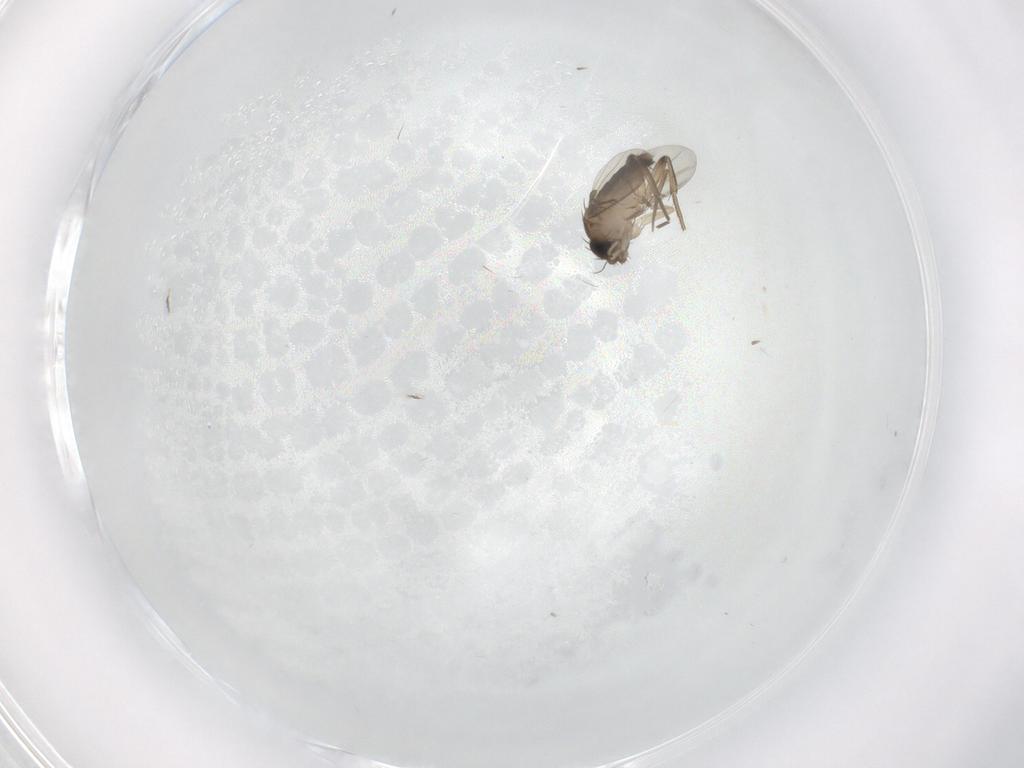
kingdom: Animalia
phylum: Arthropoda
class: Insecta
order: Diptera
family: Phoridae
